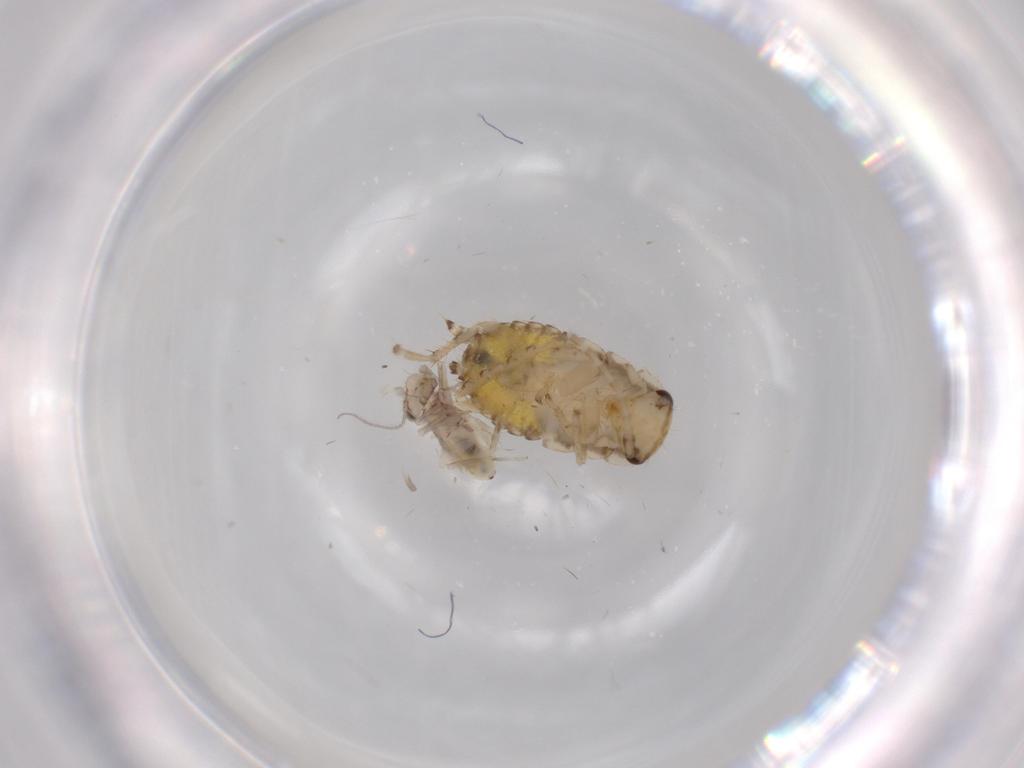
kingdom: Animalia
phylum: Arthropoda
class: Insecta
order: Blattodea
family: Ectobiidae
